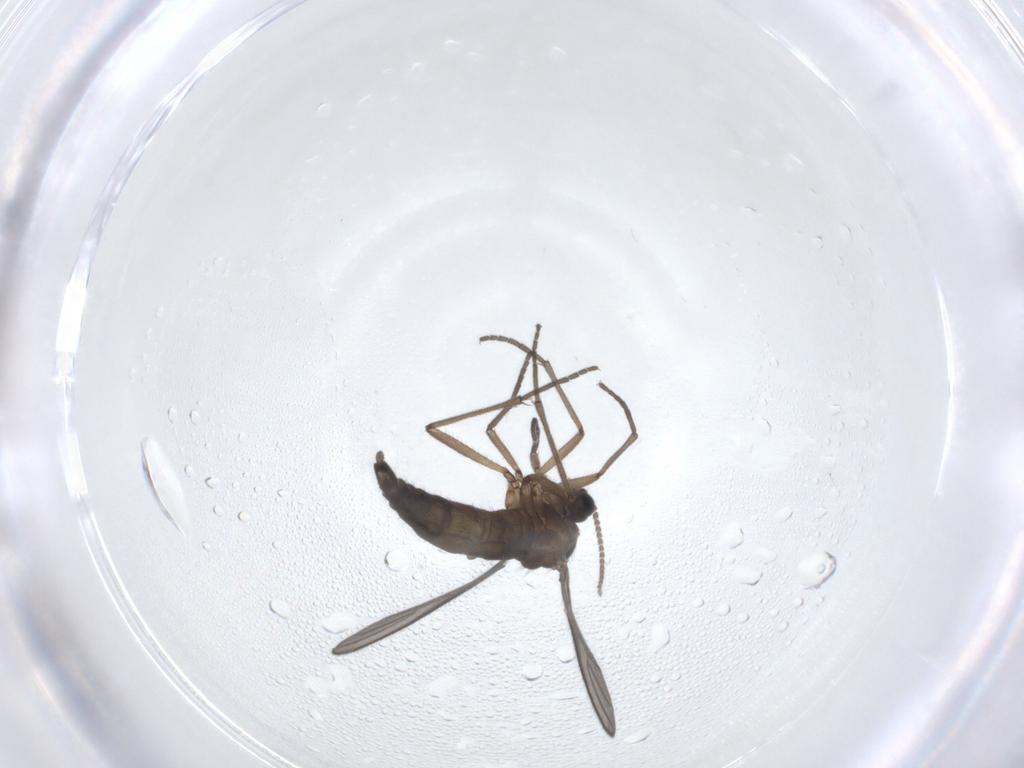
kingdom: Animalia
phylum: Arthropoda
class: Insecta
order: Diptera
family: Sciaridae
